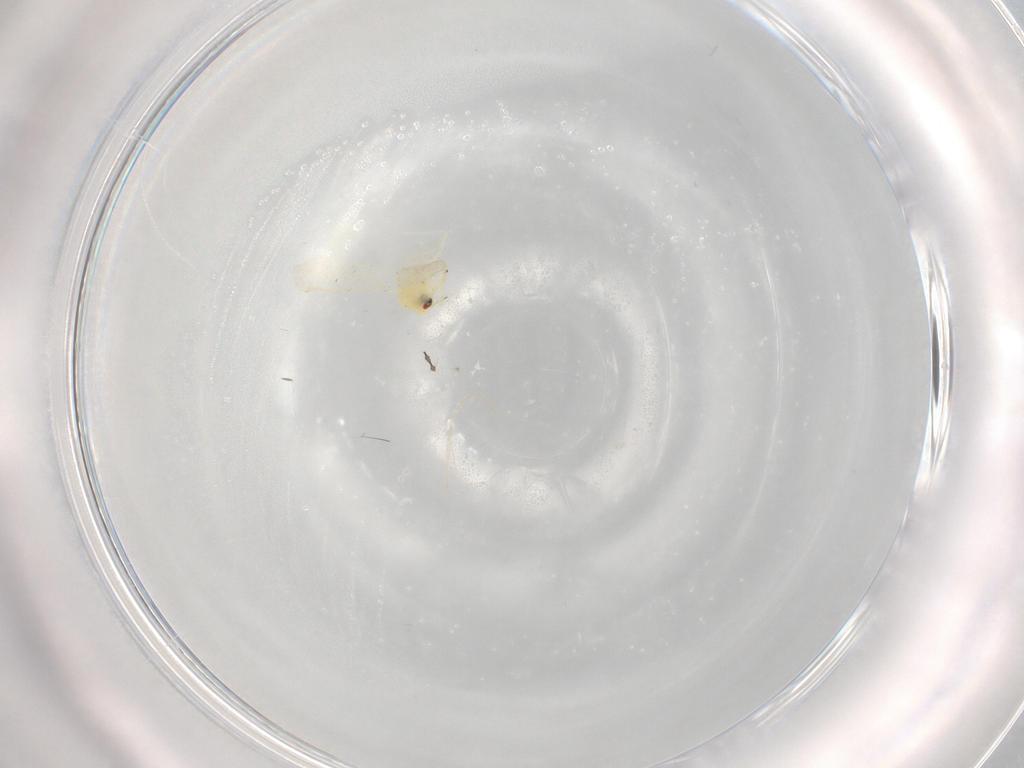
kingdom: Animalia
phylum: Arthropoda
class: Insecta
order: Hemiptera
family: Aleyrodidae
